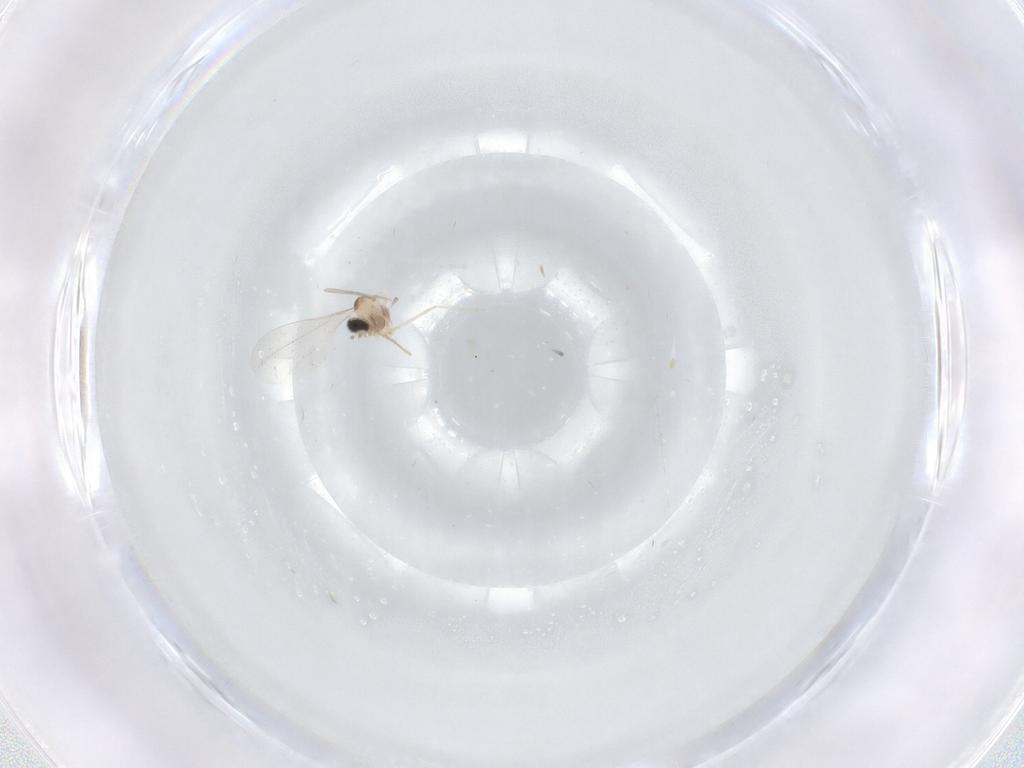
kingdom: Animalia
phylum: Arthropoda
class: Insecta
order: Diptera
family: Cecidomyiidae
